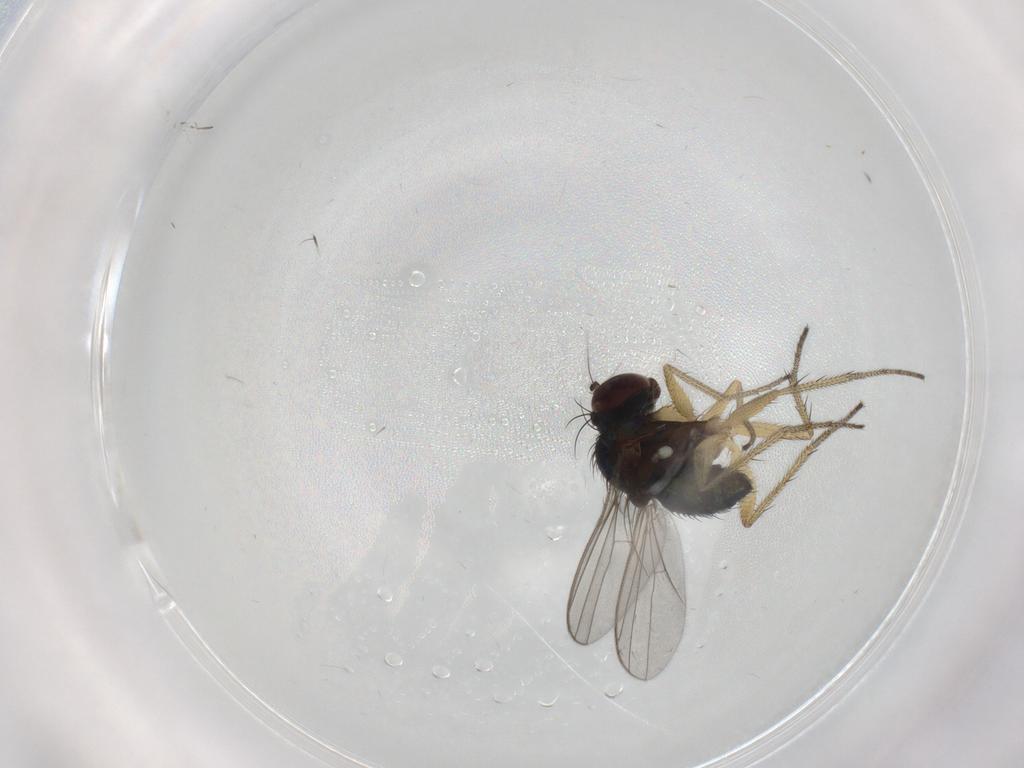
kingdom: Animalia
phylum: Arthropoda
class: Insecta
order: Diptera
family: Dolichopodidae
